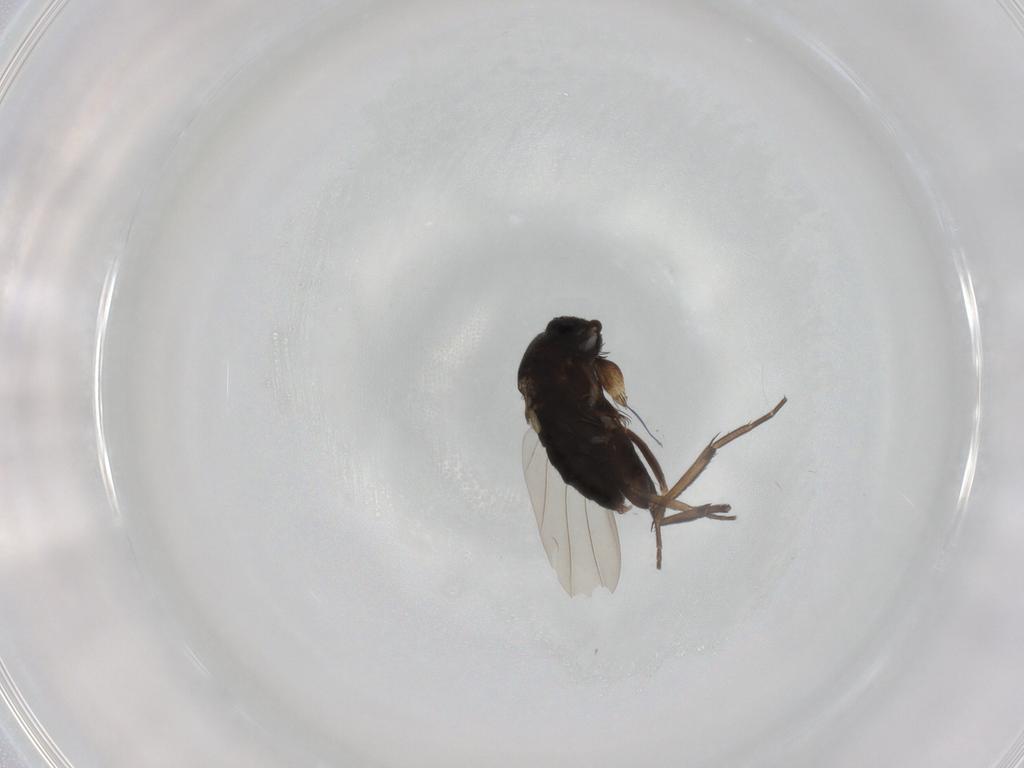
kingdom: Animalia
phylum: Arthropoda
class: Insecta
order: Diptera
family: Phoridae
